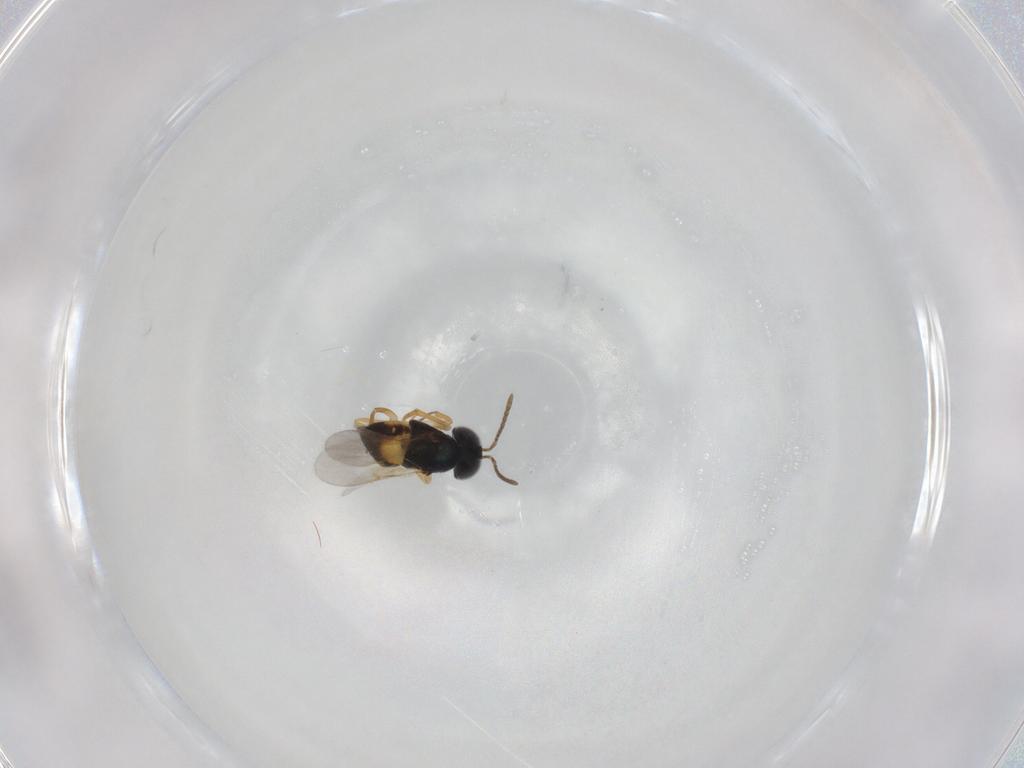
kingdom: Animalia
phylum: Arthropoda
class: Insecta
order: Hymenoptera
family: Encyrtidae
